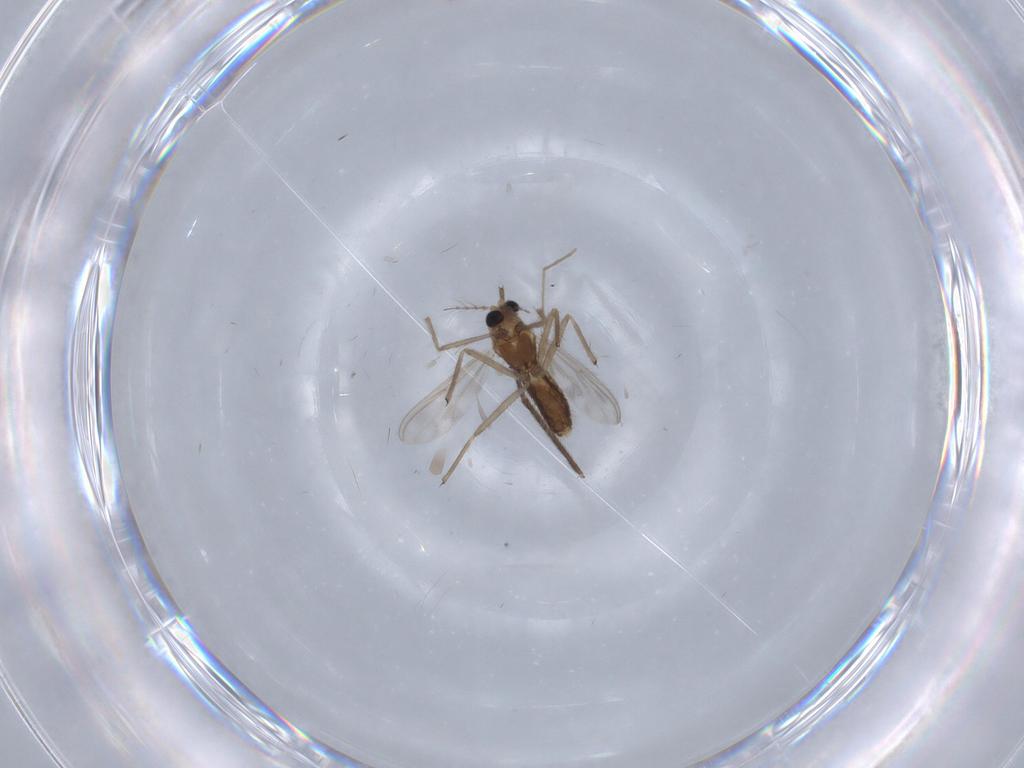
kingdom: Animalia
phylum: Arthropoda
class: Insecta
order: Diptera
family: Chironomidae
